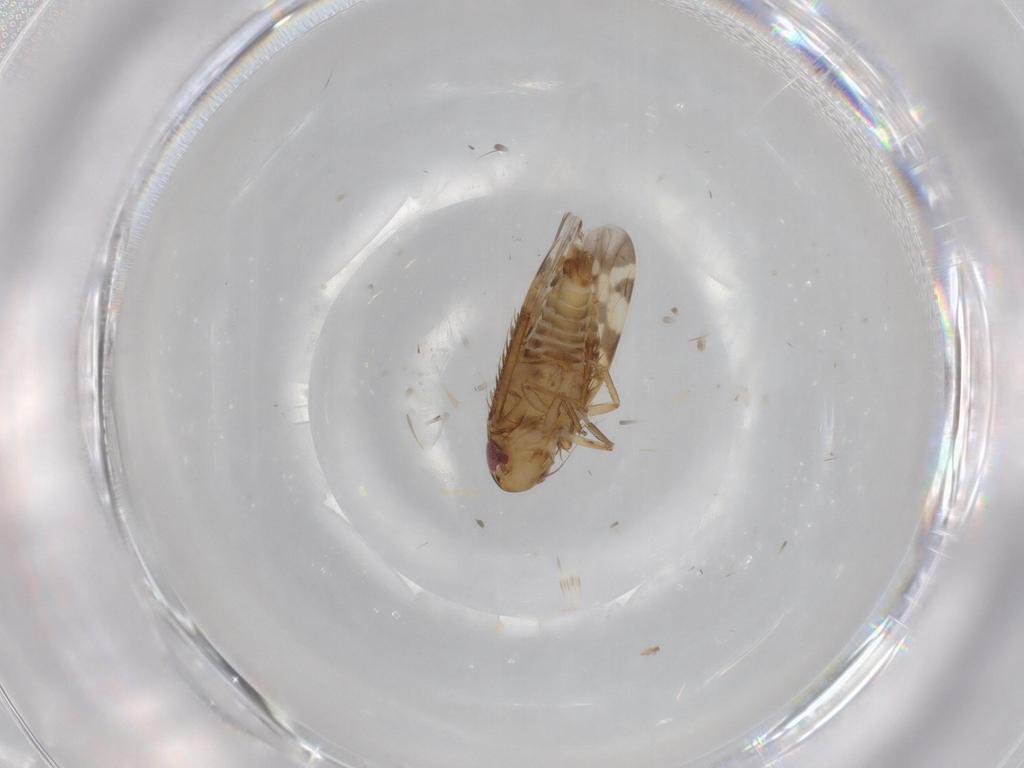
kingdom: Animalia
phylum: Arthropoda
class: Insecta
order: Hemiptera
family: Cicadellidae
